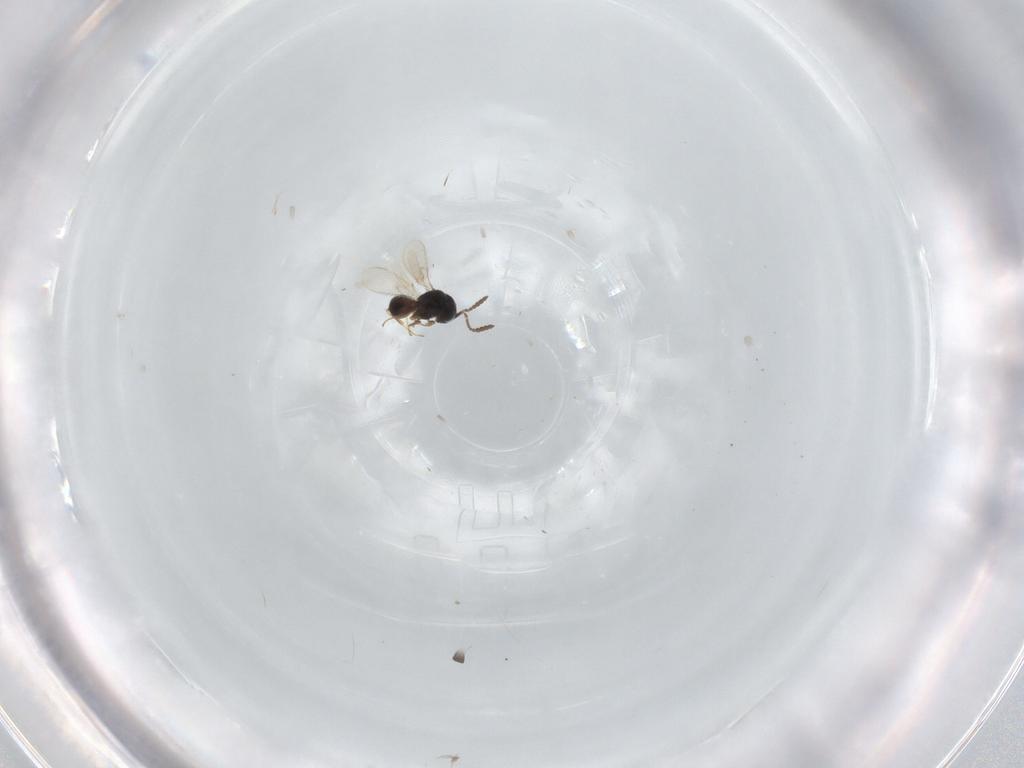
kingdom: Animalia
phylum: Arthropoda
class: Insecta
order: Hymenoptera
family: Scelionidae
